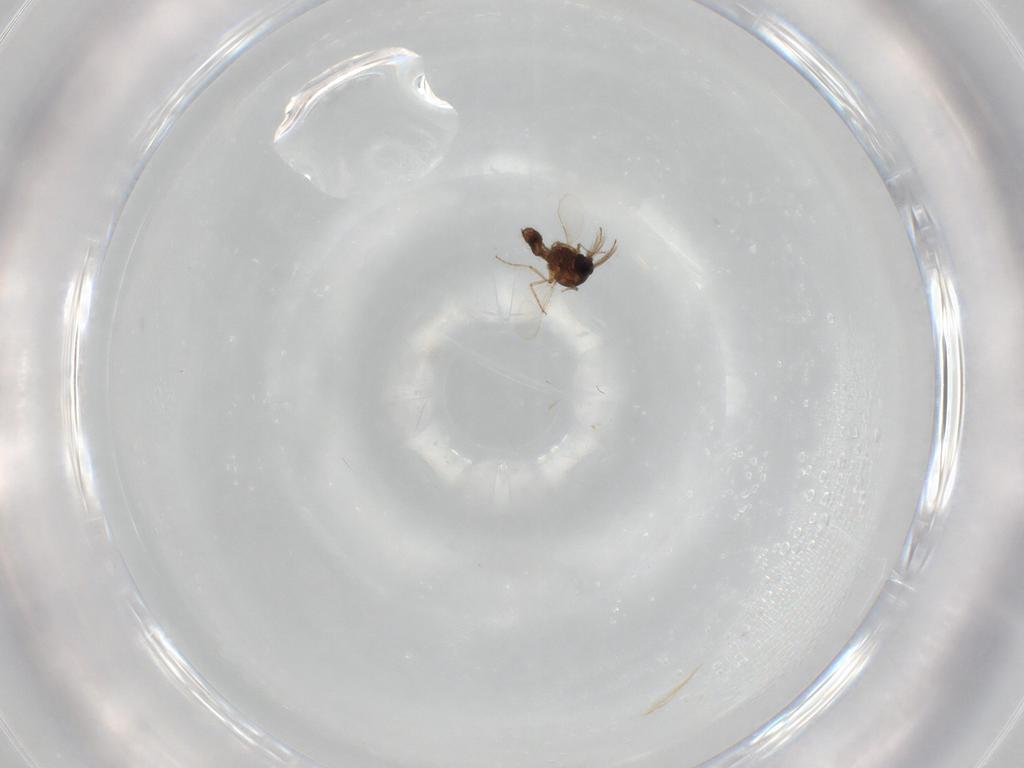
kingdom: Animalia
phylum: Arthropoda
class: Insecta
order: Diptera
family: Ceratopogonidae
